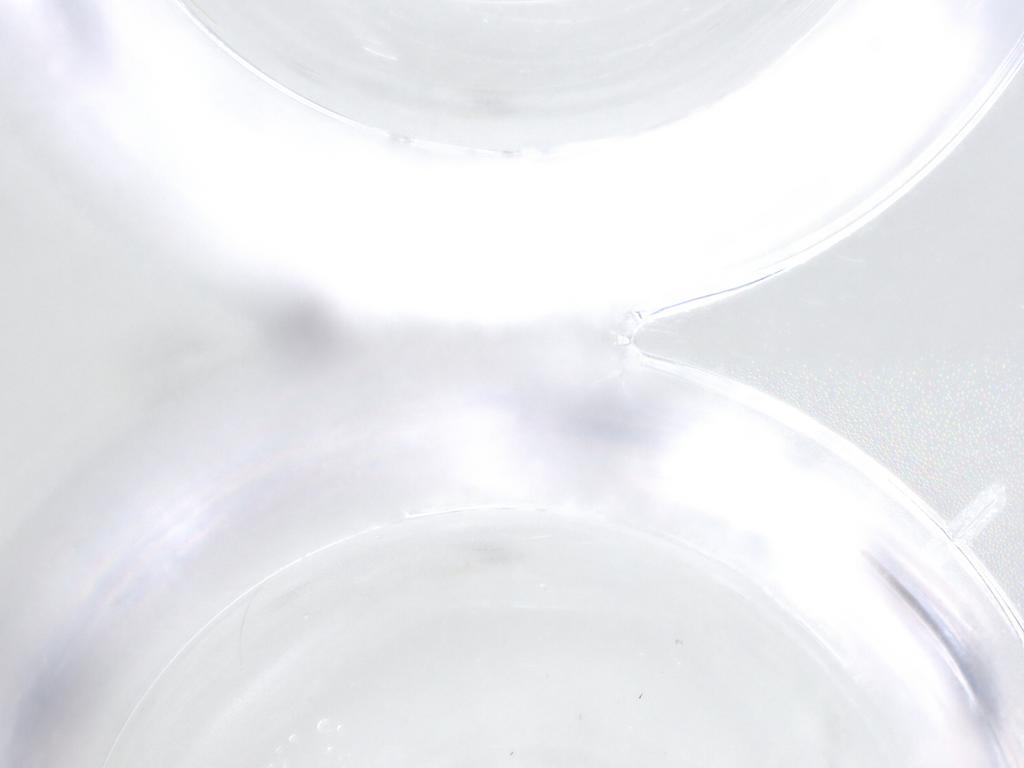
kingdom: Animalia
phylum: Arthropoda
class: Insecta
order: Diptera
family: Cecidomyiidae
